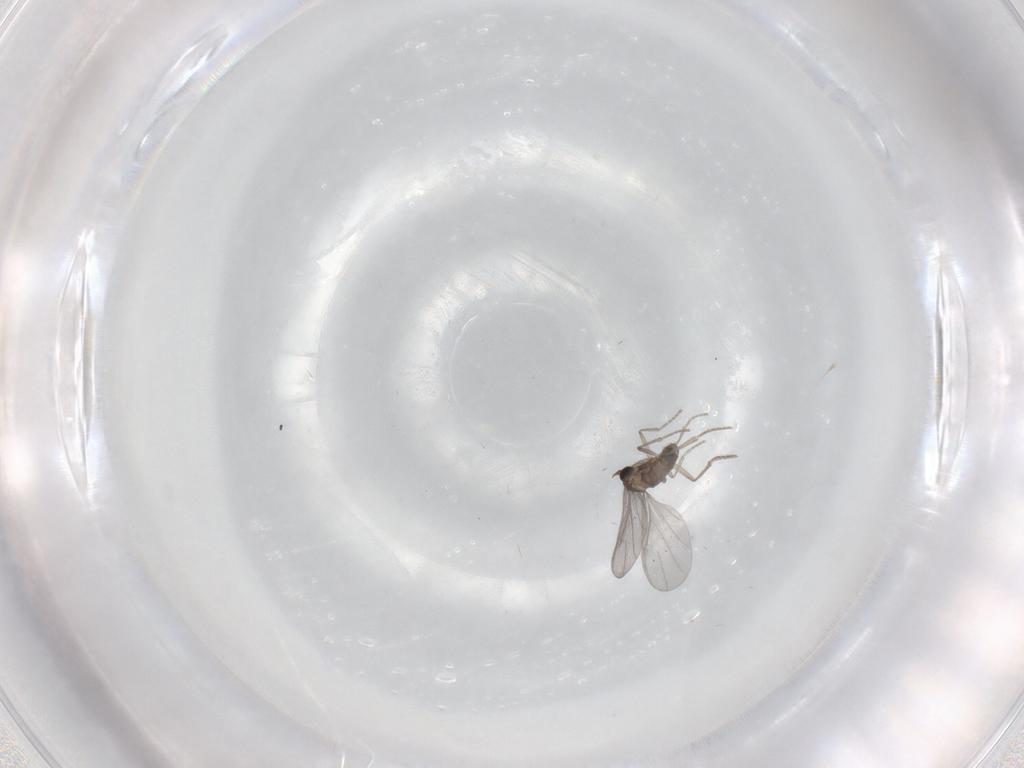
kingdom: Animalia
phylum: Arthropoda
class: Insecta
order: Diptera
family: Phoridae
